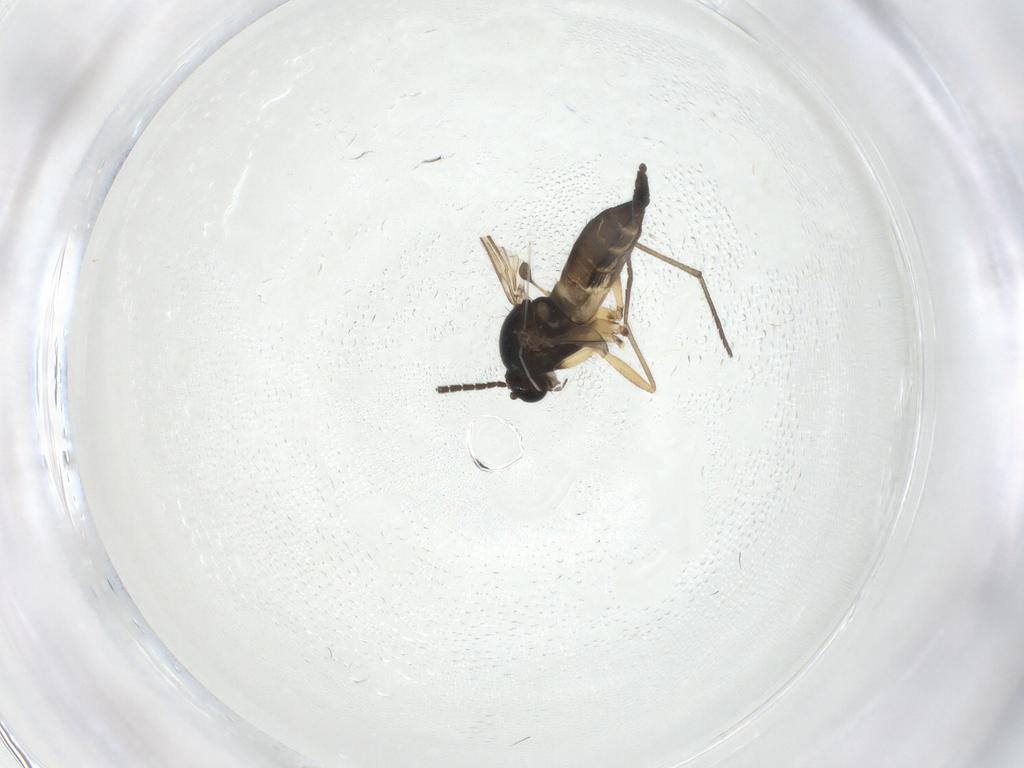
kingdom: Animalia
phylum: Arthropoda
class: Insecta
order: Diptera
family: Sciaridae
